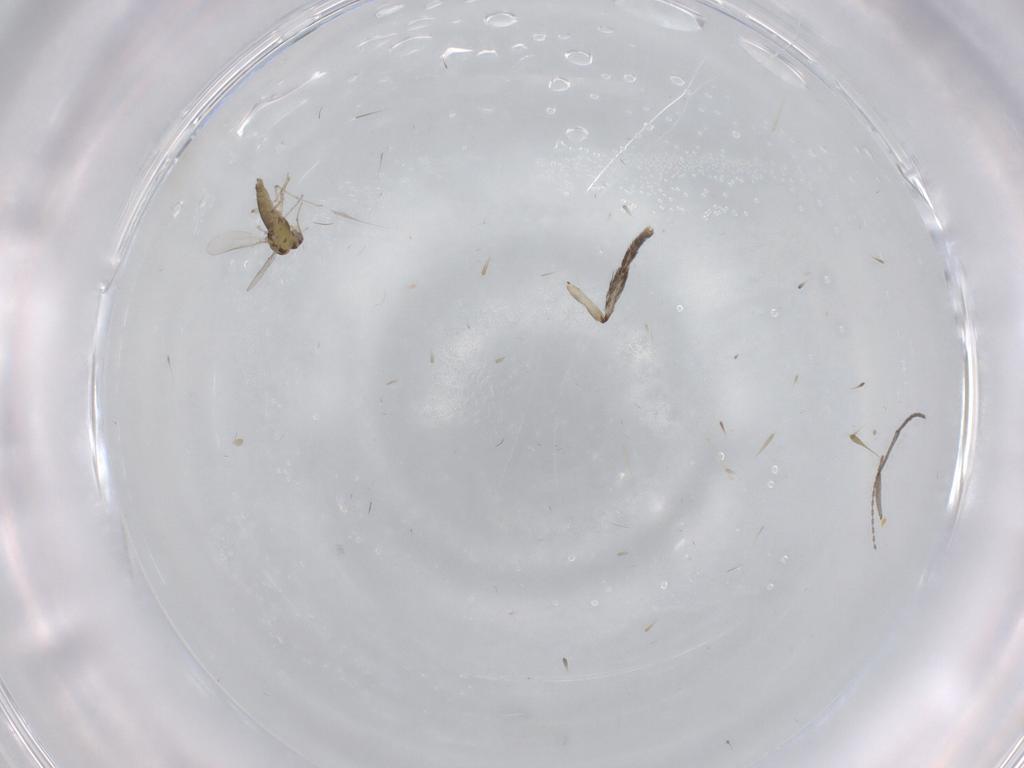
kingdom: Animalia
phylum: Arthropoda
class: Insecta
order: Diptera
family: Chironomidae
